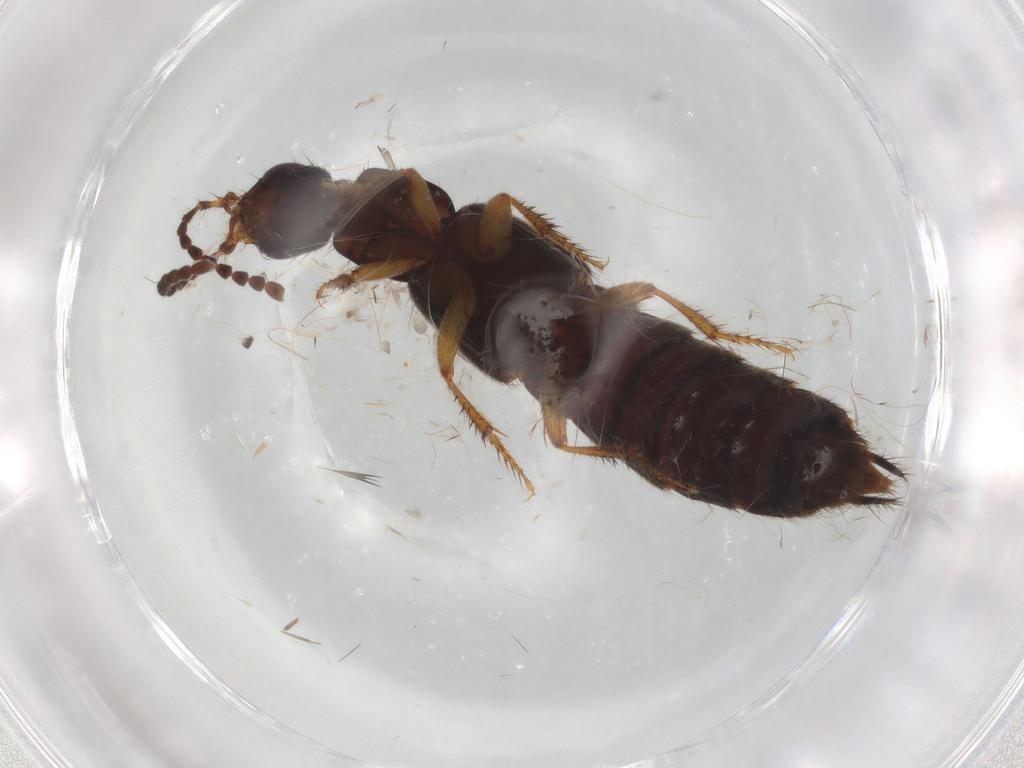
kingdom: Animalia
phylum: Arthropoda
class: Insecta
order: Coleoptera
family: Staphylinidae
